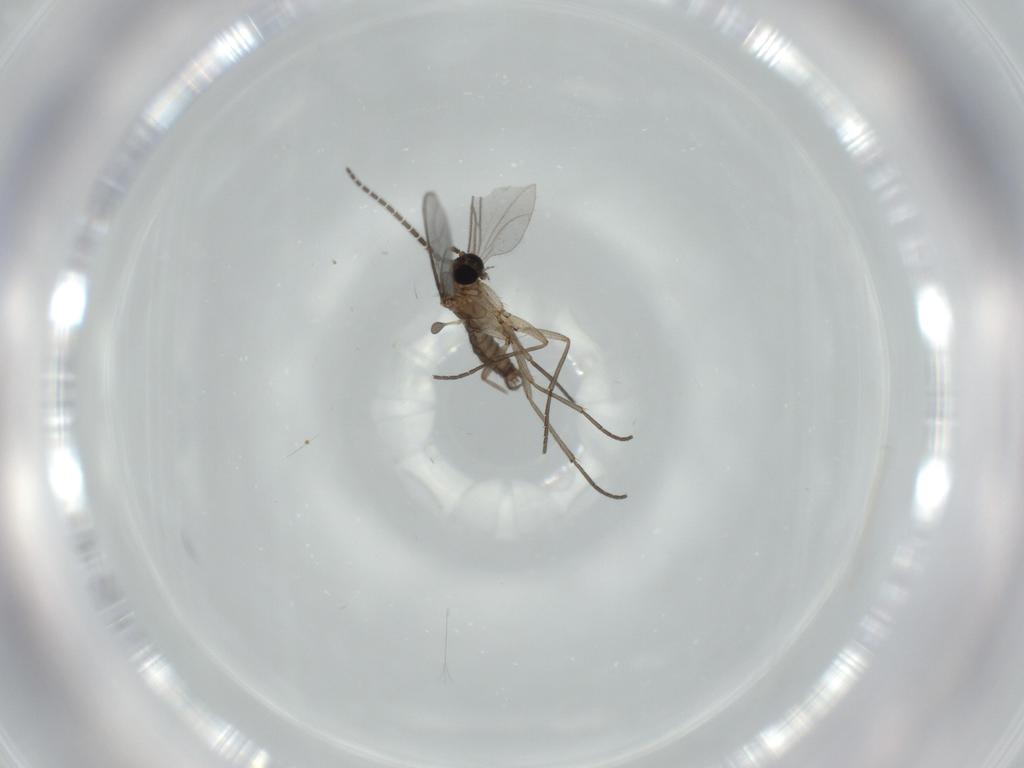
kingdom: Animalia
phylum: Arthropoda
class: Insecta
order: Diptera
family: Sciaridae
